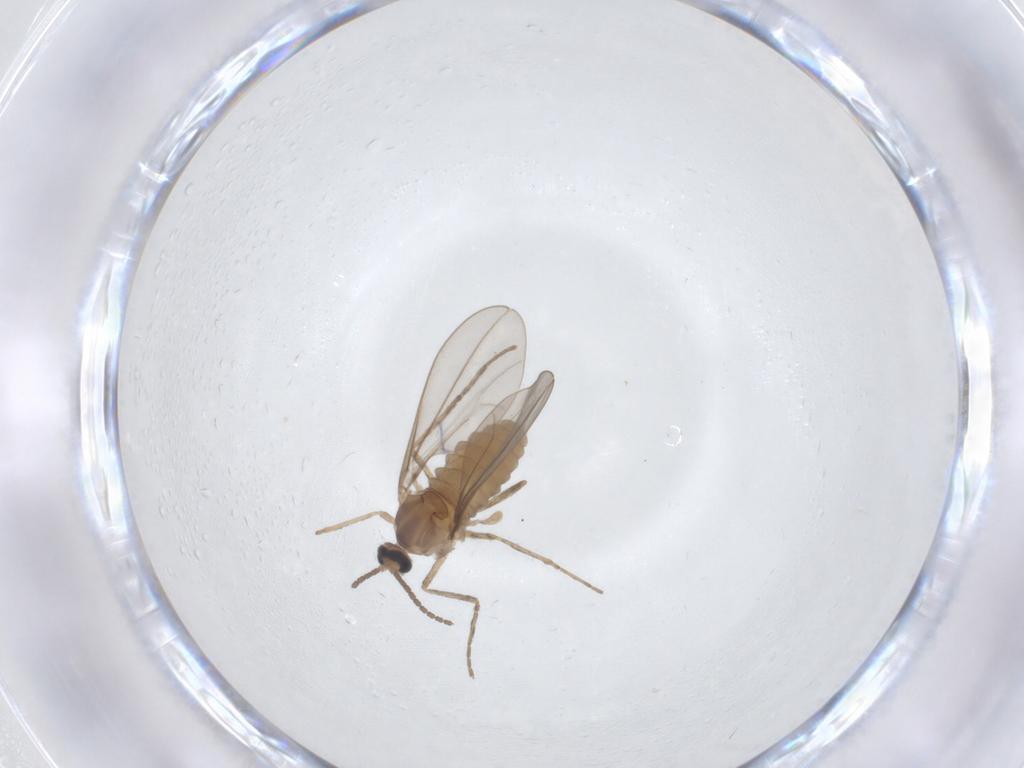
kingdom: Animalia
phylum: Arthropoda
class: Insecta
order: Diptera
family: Cecidomyiidae
